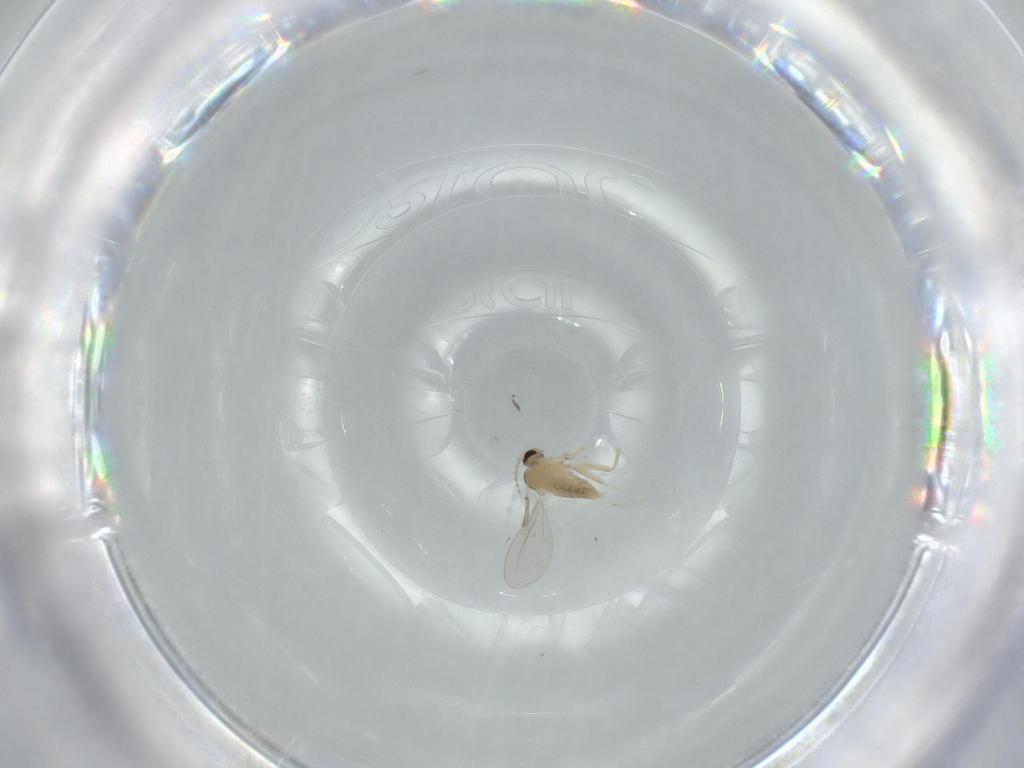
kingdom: Animalia
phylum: Arthropoda
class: Insecta
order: Diptera
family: Cecidomyiidae
